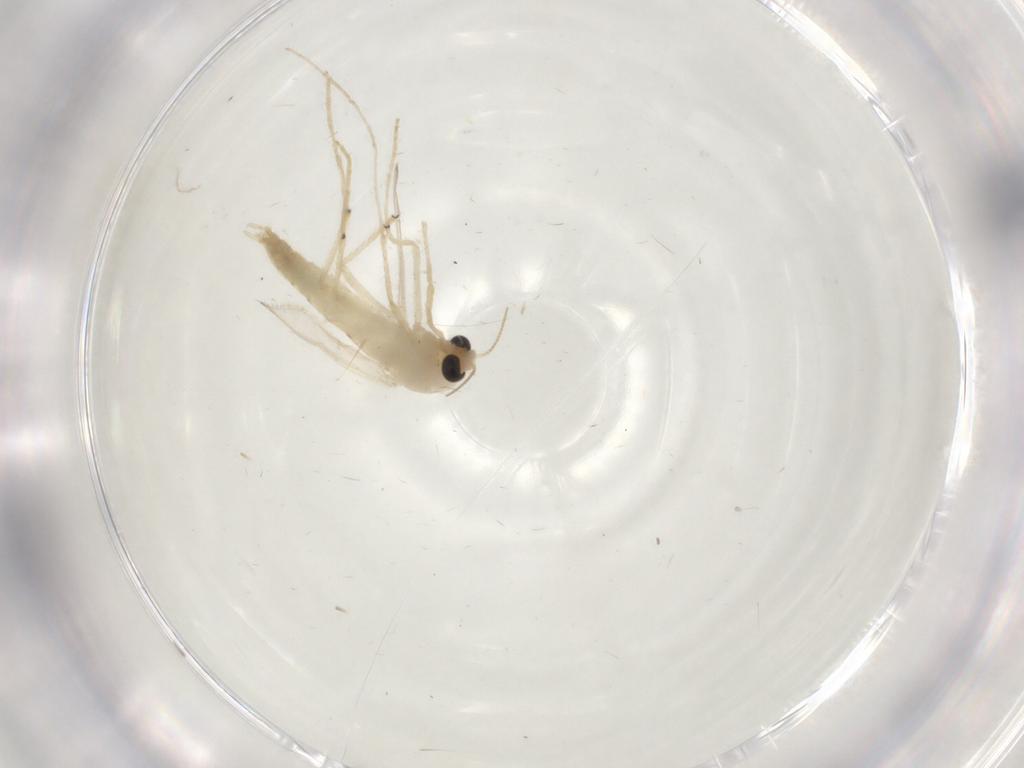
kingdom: Animalia
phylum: Arthropoda
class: Insecta
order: Diptera
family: Chironomidae
